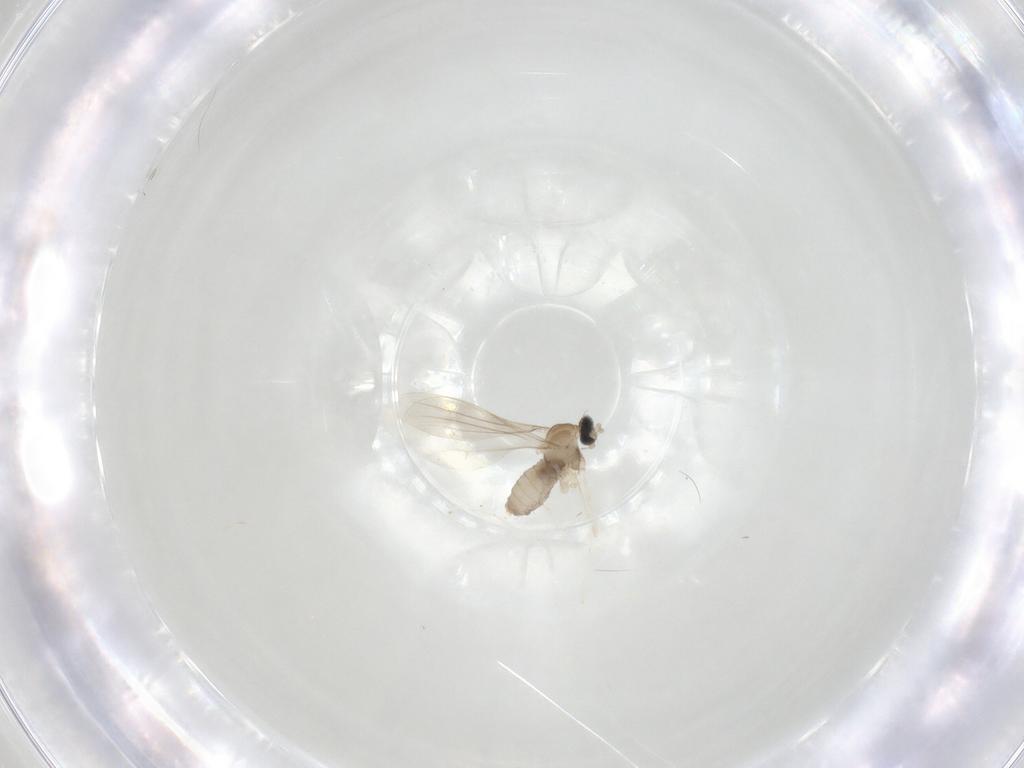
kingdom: Animalia
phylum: Arthropoda
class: Insecta
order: Diptera
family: Cecidomyiidae
